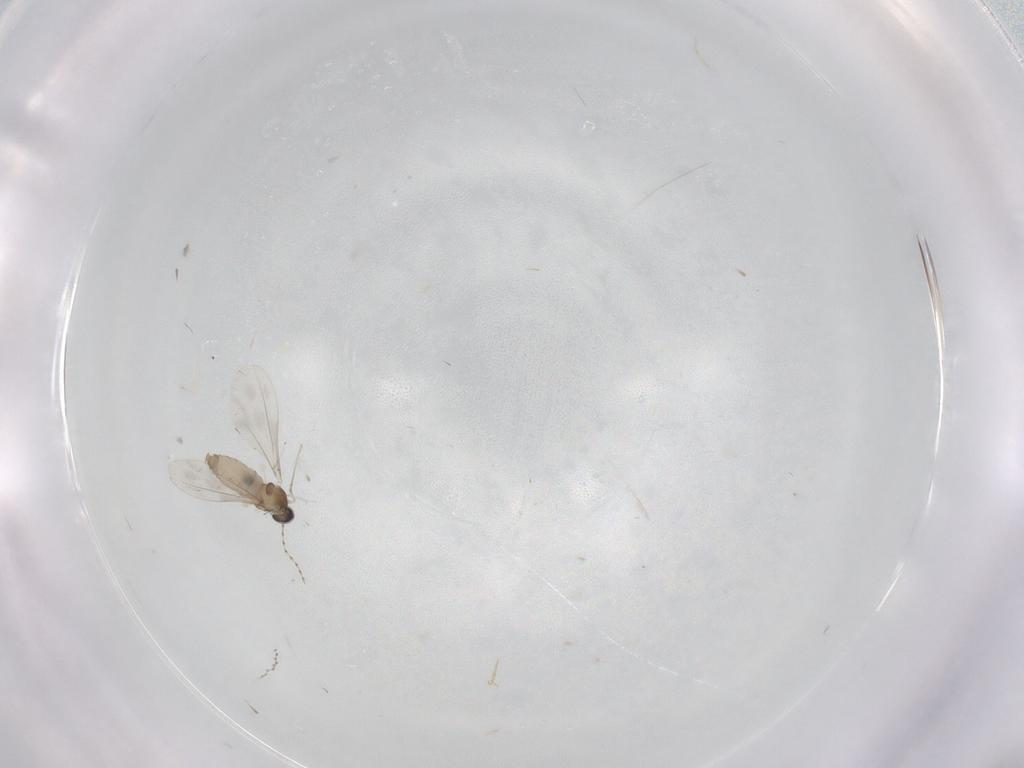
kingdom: Animalia
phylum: Arthropoda
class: Insecta
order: Diptera
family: Cecidomyiidae
